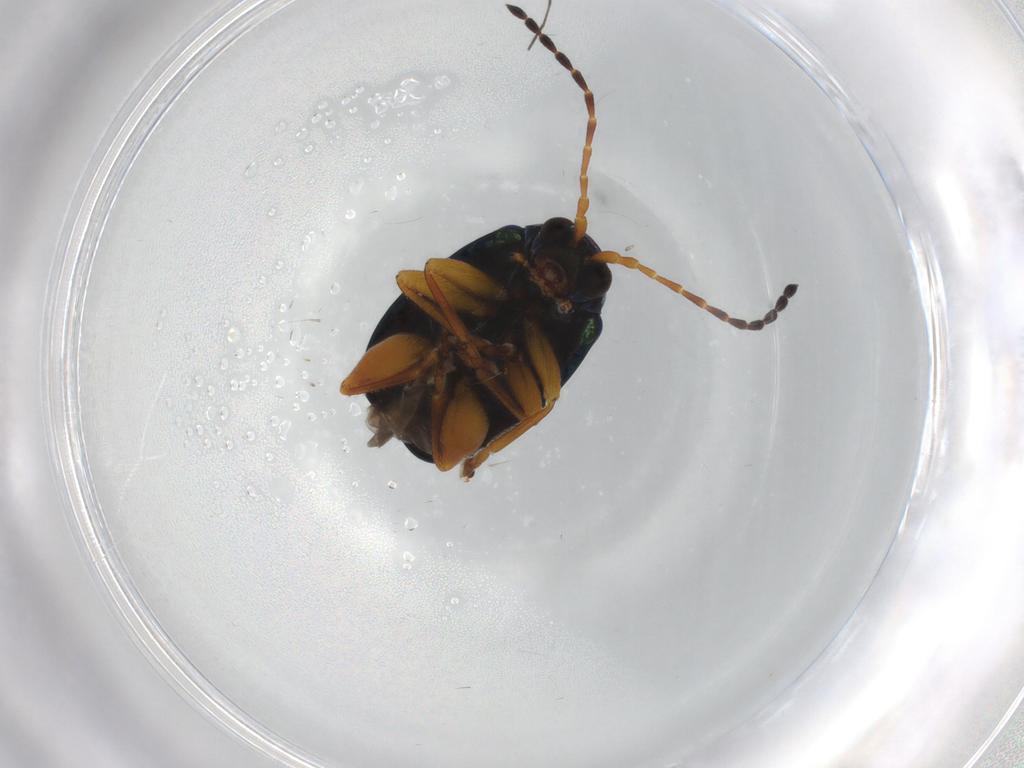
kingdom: Animalia
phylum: Arthropoda
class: Insecta
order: Coleoptera
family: Chrysomelidae
